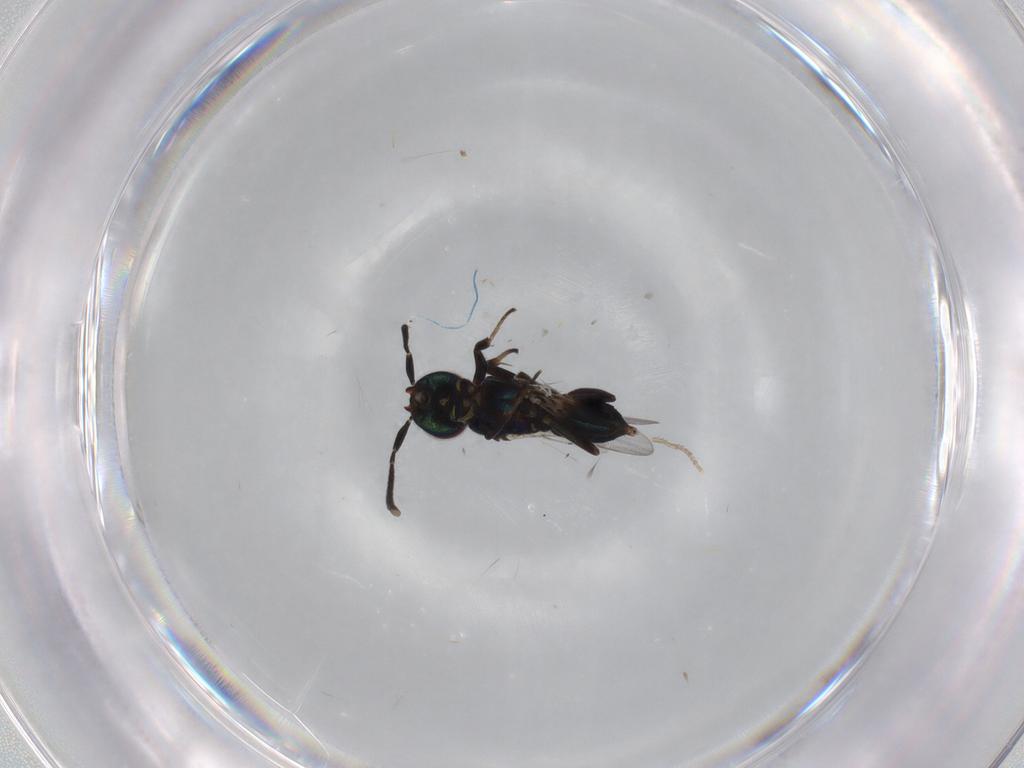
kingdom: Animalia
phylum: Arthropoda
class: Insecta
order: Hymenoptera
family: Eupelmidae
